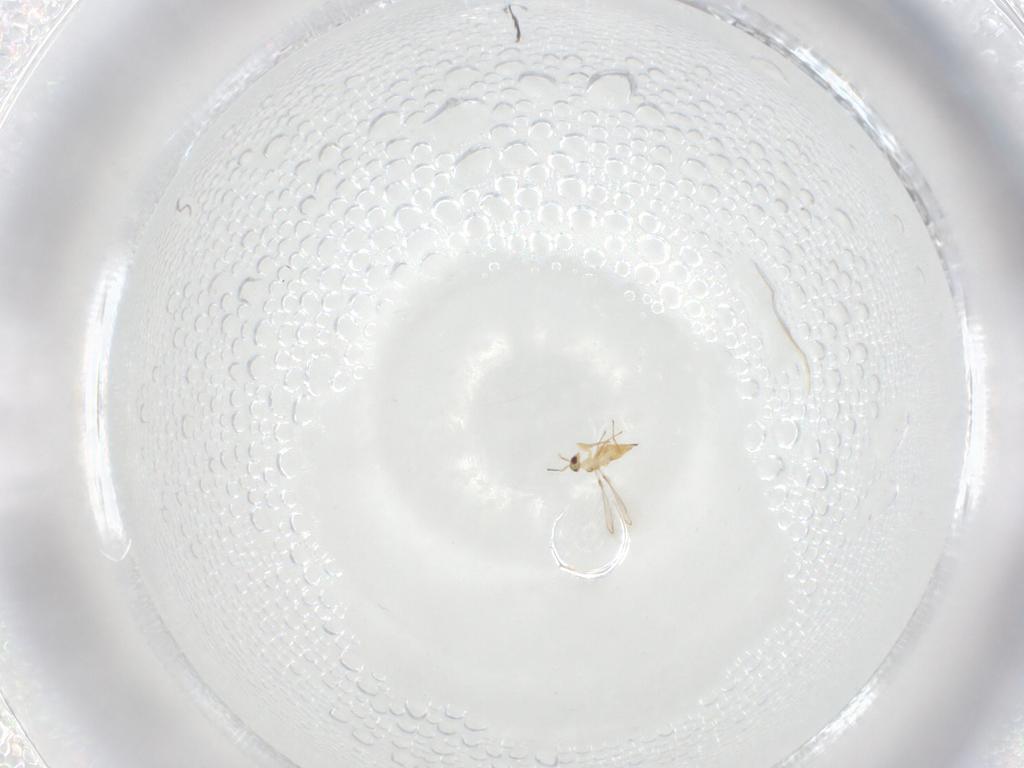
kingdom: Animalia
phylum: Arthropoda
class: Insecta
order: Hymenoptera
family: Mymaridae
